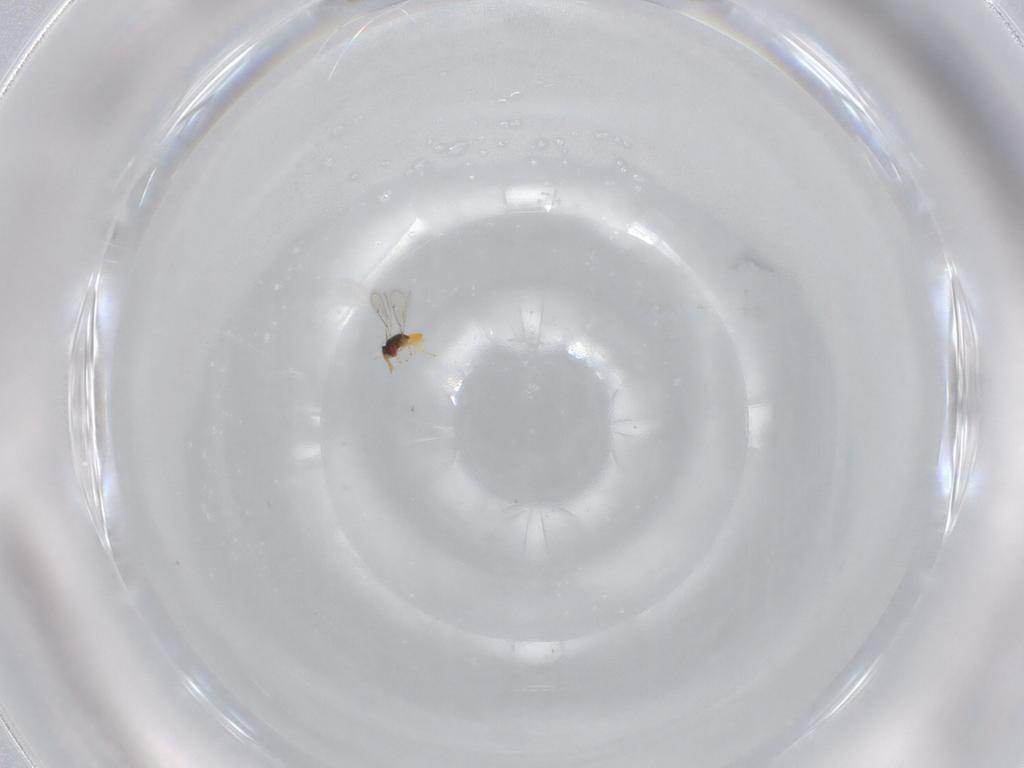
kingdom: Animalia
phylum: Arthropoda
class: Insecta
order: Hymenoptera
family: Eulophidae
